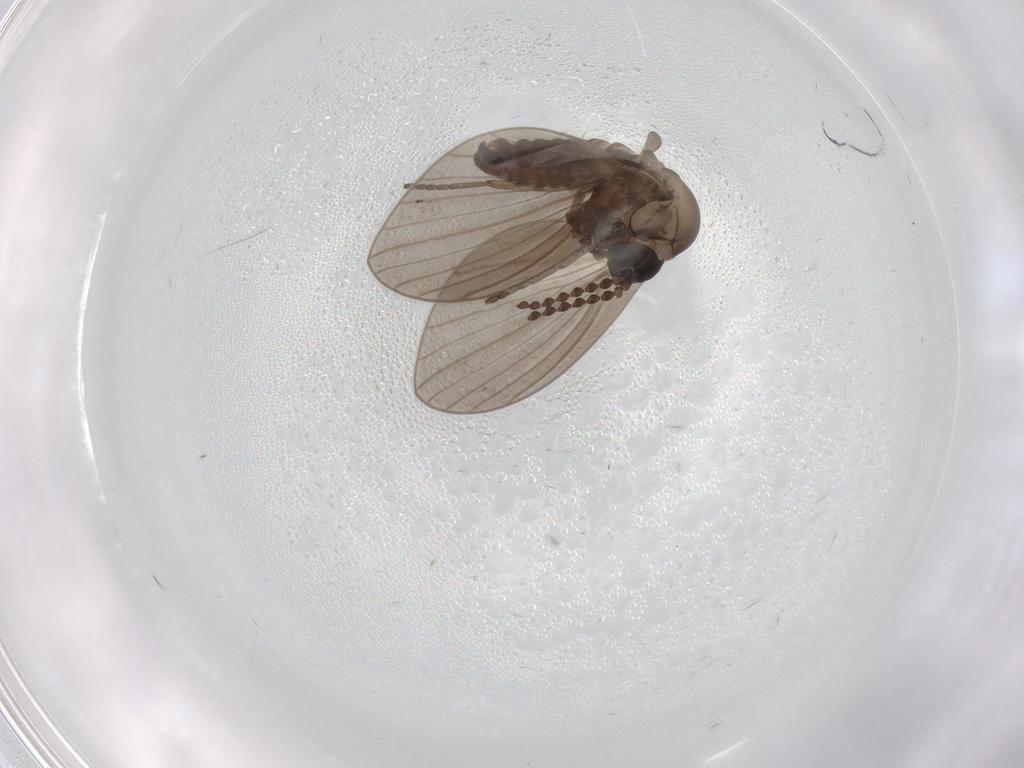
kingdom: Animalia
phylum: Arthropoda
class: Insecta
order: Diptera
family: Psychodidae
